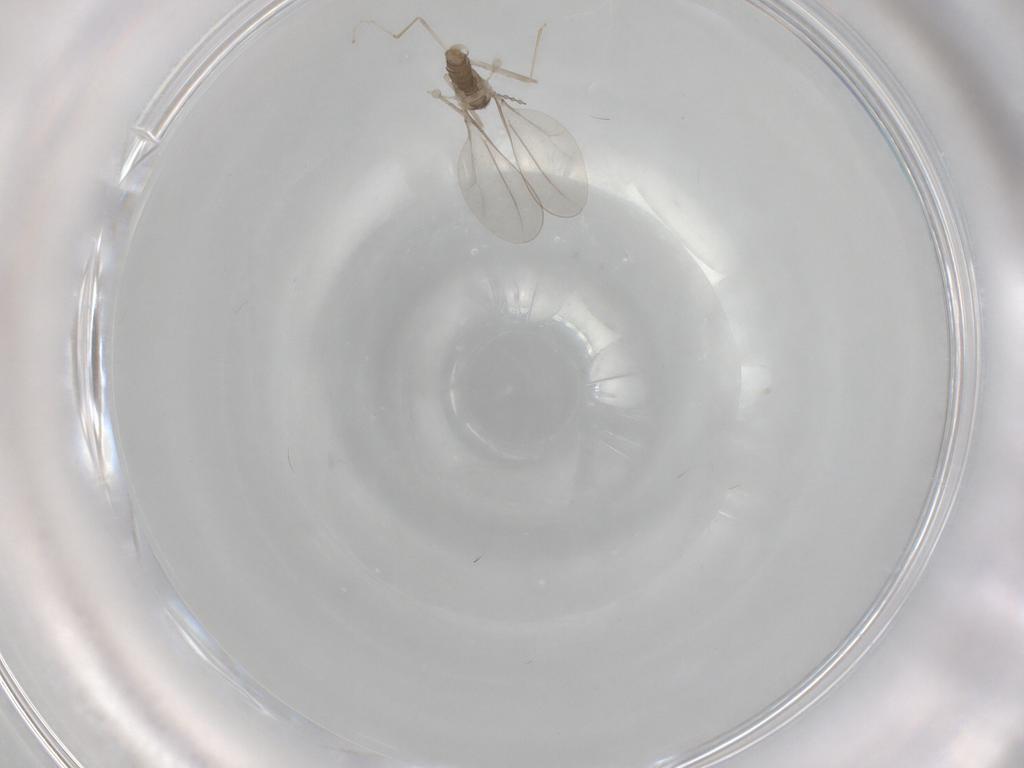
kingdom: Animalia
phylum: Arthropoda
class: Insecta
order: Diptera
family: Cecidomyiidae
